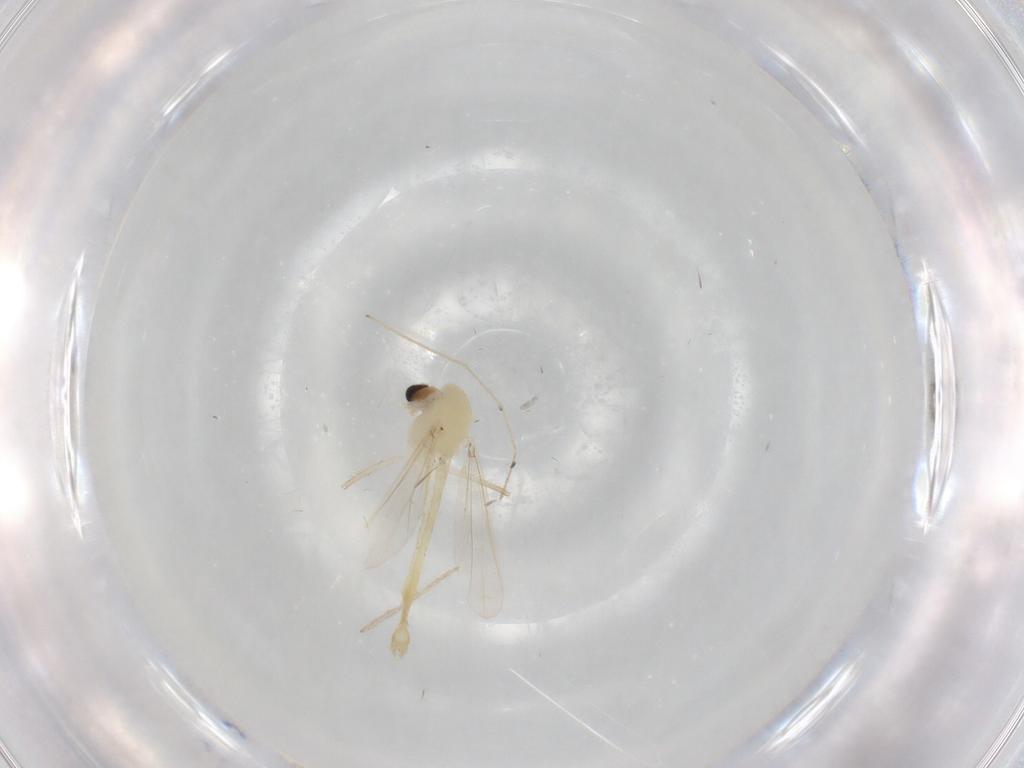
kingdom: Animalia
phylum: Arthropoda
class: Insecta
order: Diptera
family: Chironomidae
